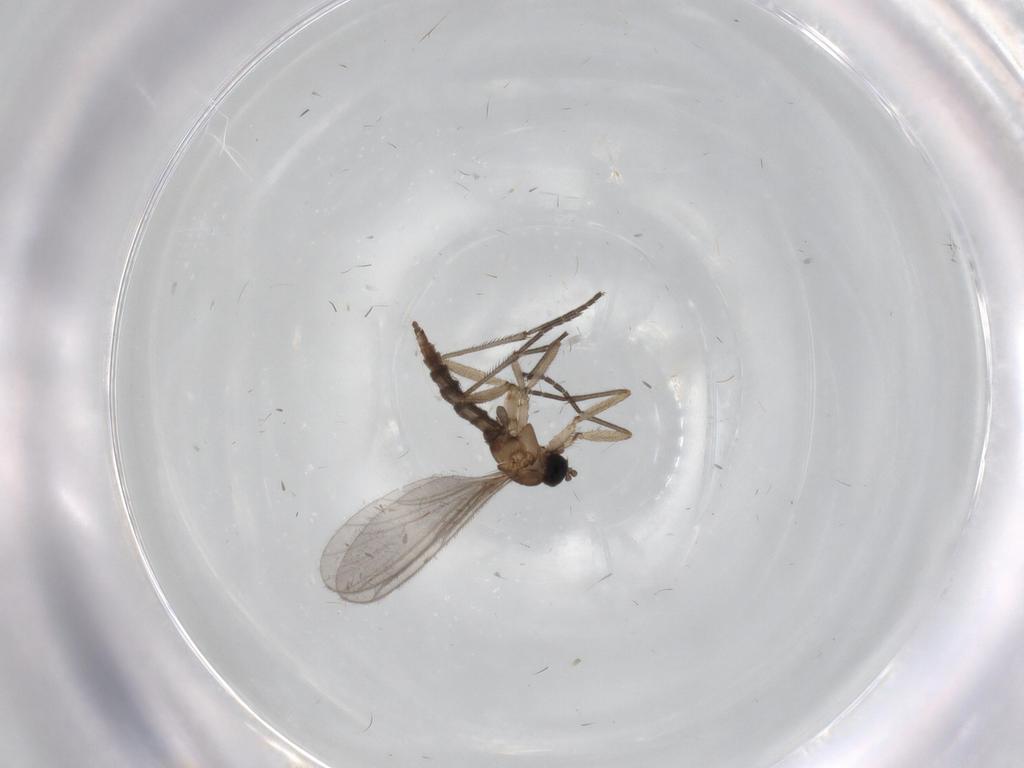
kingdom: Animalia
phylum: Arthropoda
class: Insecta
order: Diptera
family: Sciaridae
